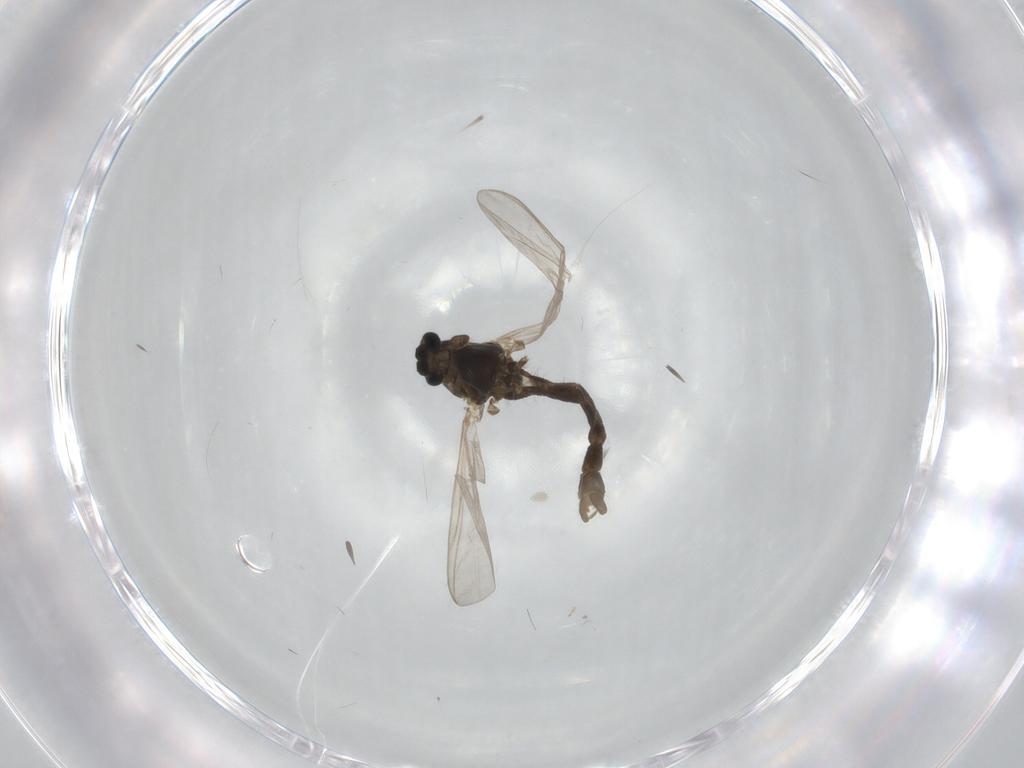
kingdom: Animalia
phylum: Arthropoda
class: Insecta
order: Diptera
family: Chironomidae
